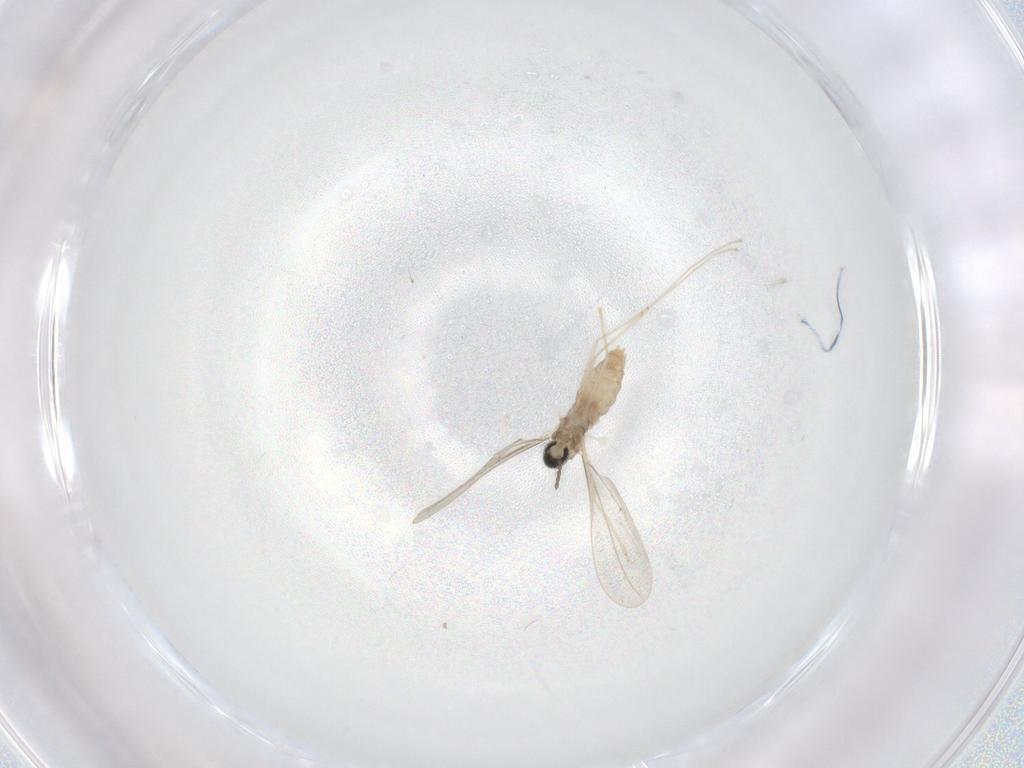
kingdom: Animalia
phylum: Arthropoda
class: Insecta
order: Diptera
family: Cecidomyiidae
